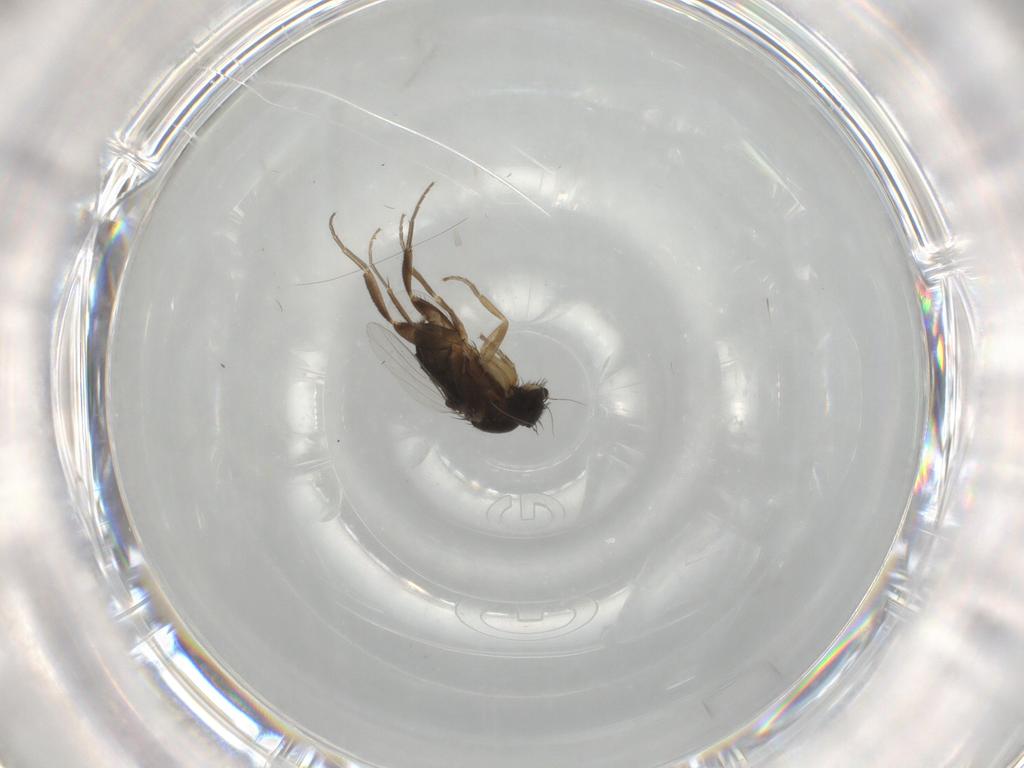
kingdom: Animalia
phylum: Arthropoda
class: Insecta
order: Diptera
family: Phoridae
